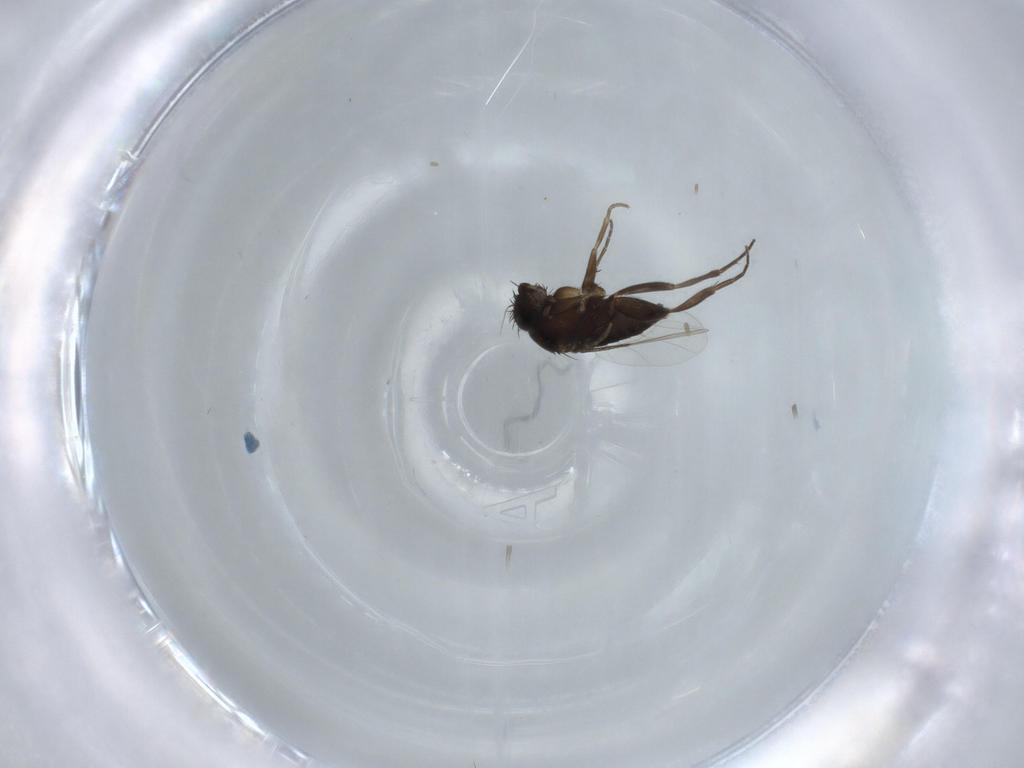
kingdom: Animalia
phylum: Arthropoda
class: Insecta
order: Diptera
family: Phoridae
